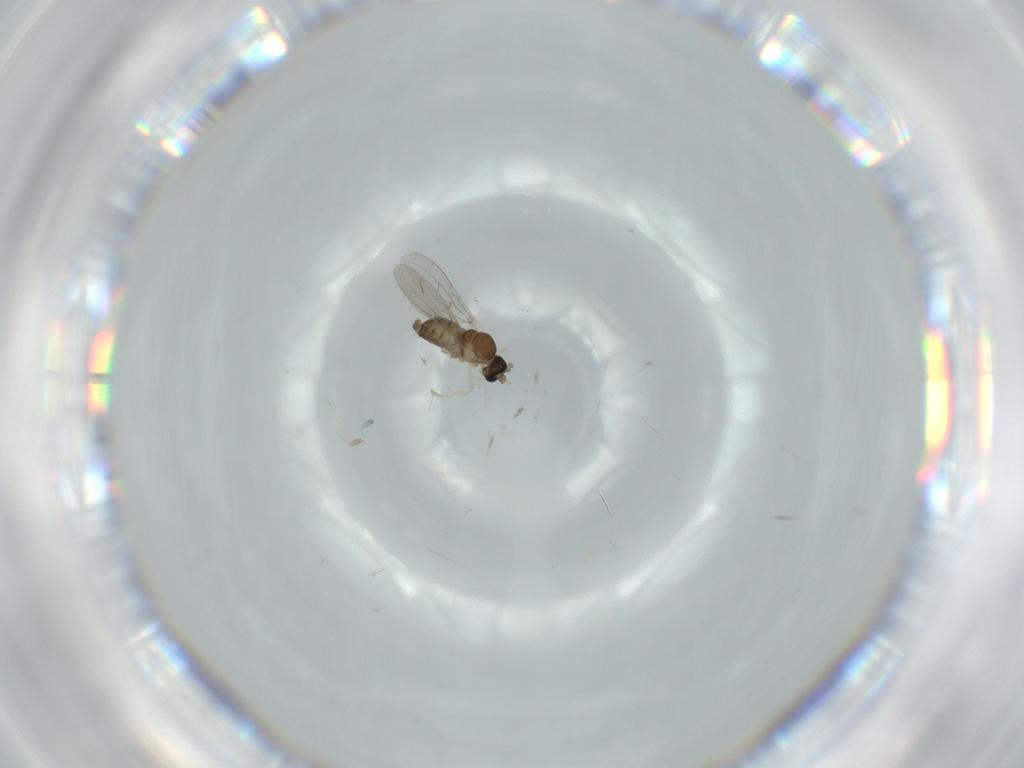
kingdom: Animalia
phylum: Arthropoda
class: Insecta
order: Diptera
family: Cecidomyiidae
